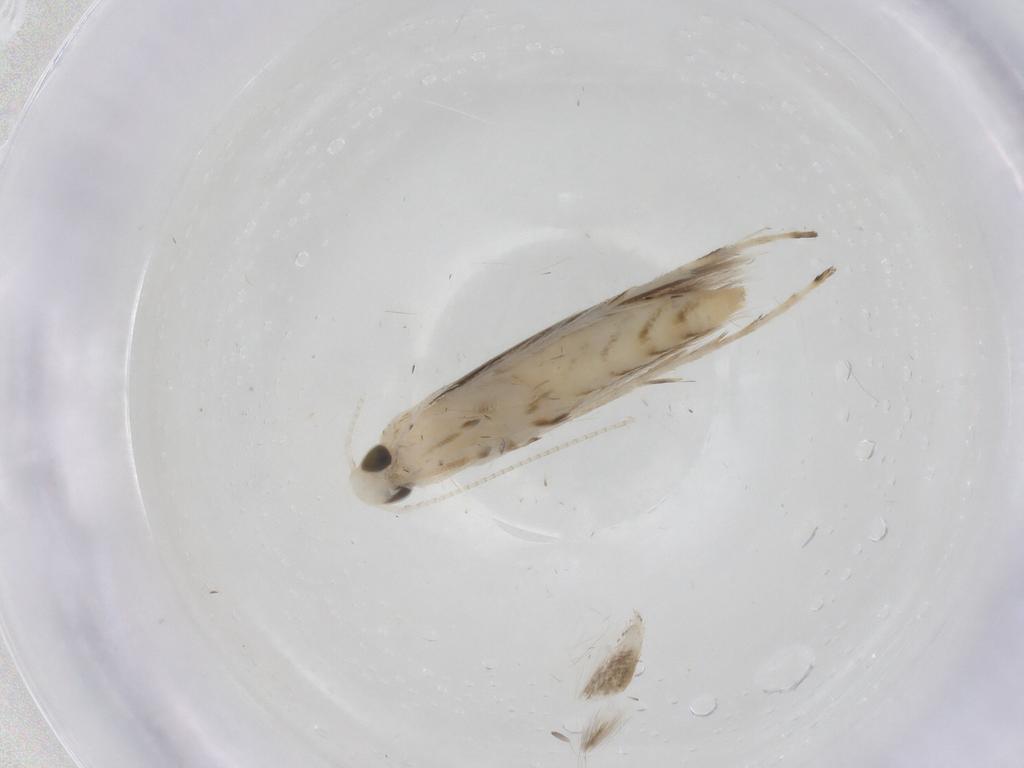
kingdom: Animalia
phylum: Arthropoda
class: Insecta
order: Lepidoptera
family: Gracillariidae
